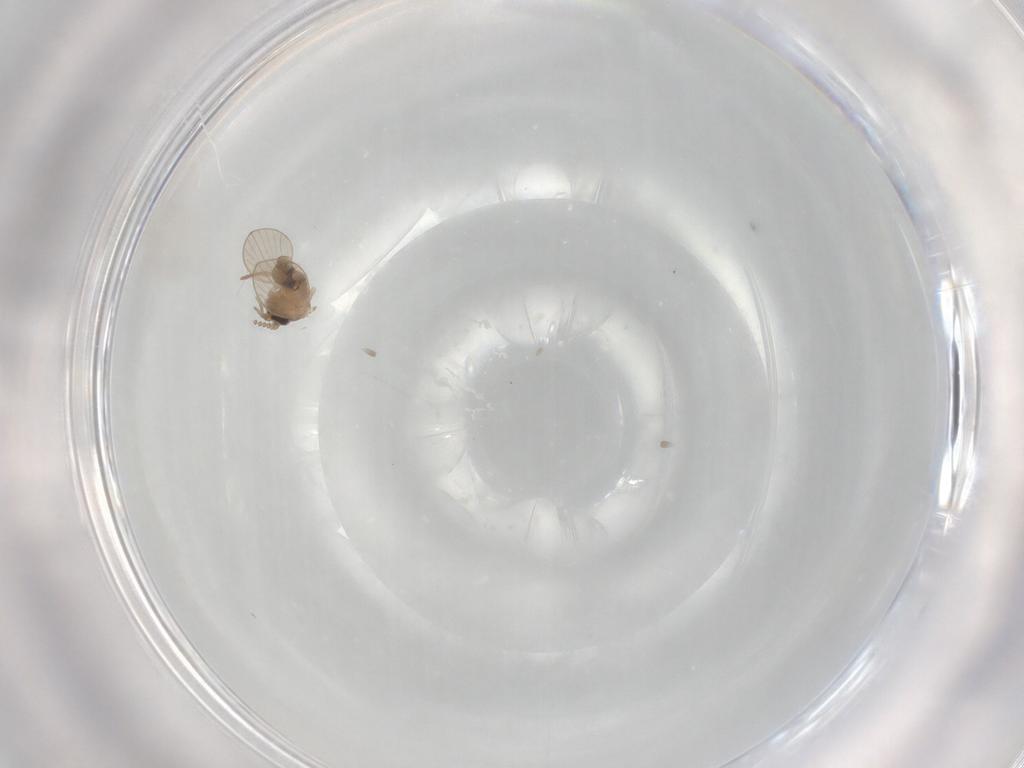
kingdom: Animalia
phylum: Arthropoda
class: Insecta
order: Diptera
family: Psychodidae
